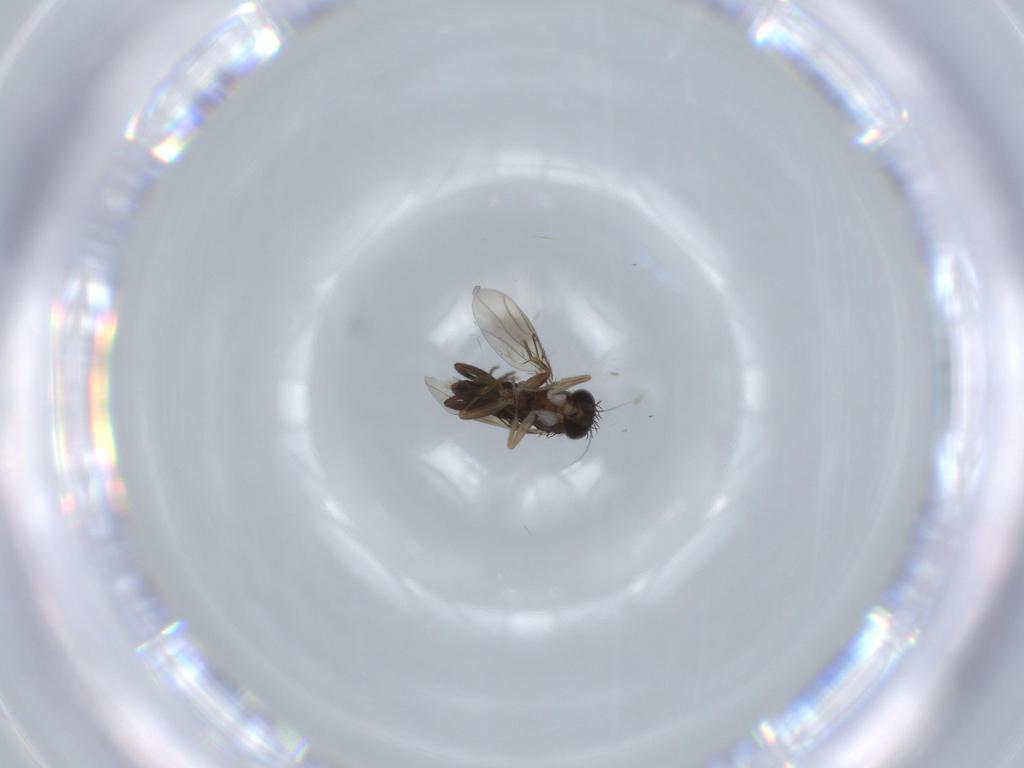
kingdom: Animalia
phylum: Arthropoda
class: Insecta
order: Diptera
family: Phoridae
